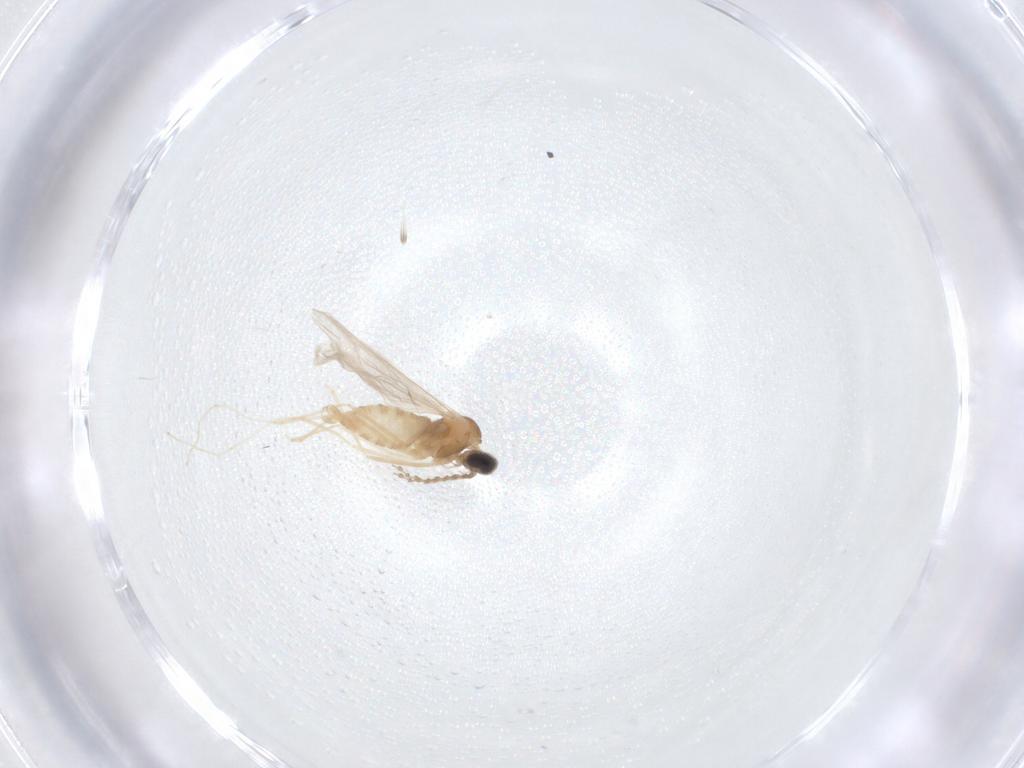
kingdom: Animalia
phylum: Arthropoda
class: Insecta
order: Diptera
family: Cecidomyiidae
